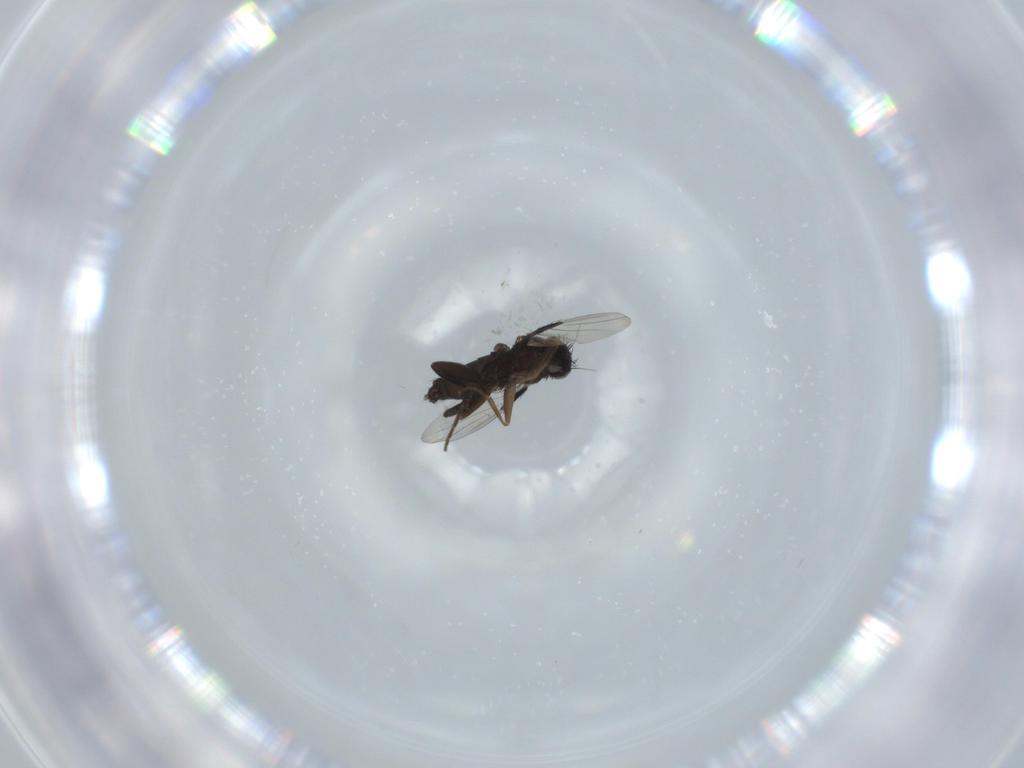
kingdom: Animalia
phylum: Arthropoda
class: Insecta
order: Diptera
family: Phoridae
